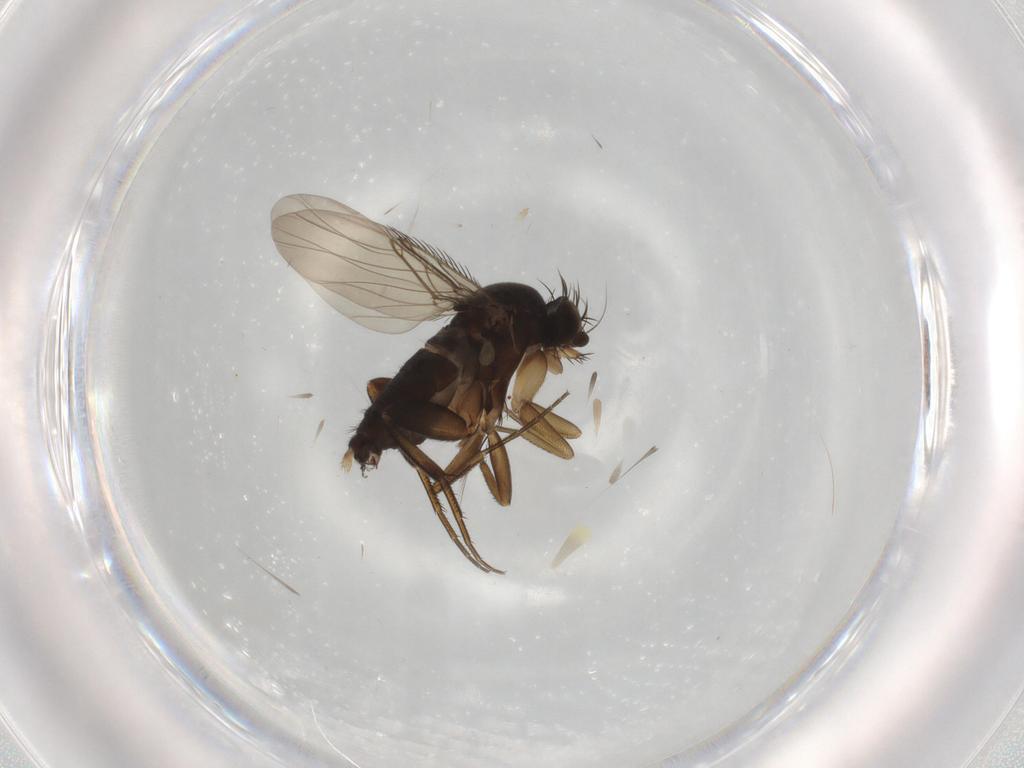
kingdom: Animalia
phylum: Arthropoda
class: Insecta
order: Diptera
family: Phoridae
